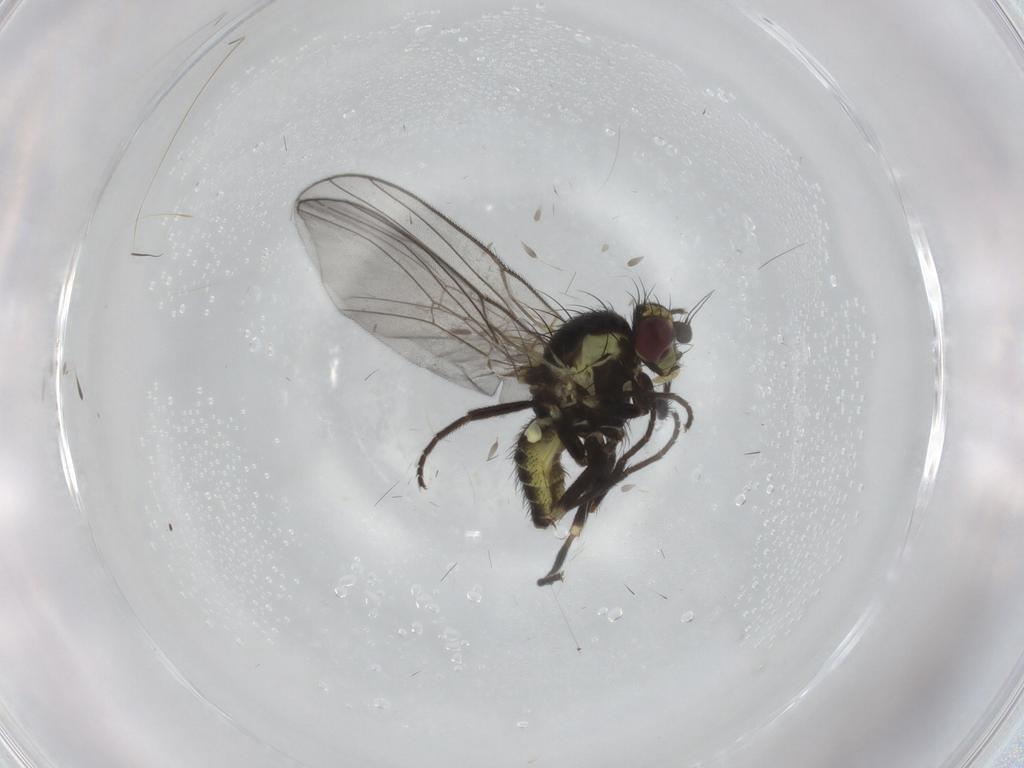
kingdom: Animalia
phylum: Arthropoda
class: Insecta
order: Diptera
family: Agromyzidae
